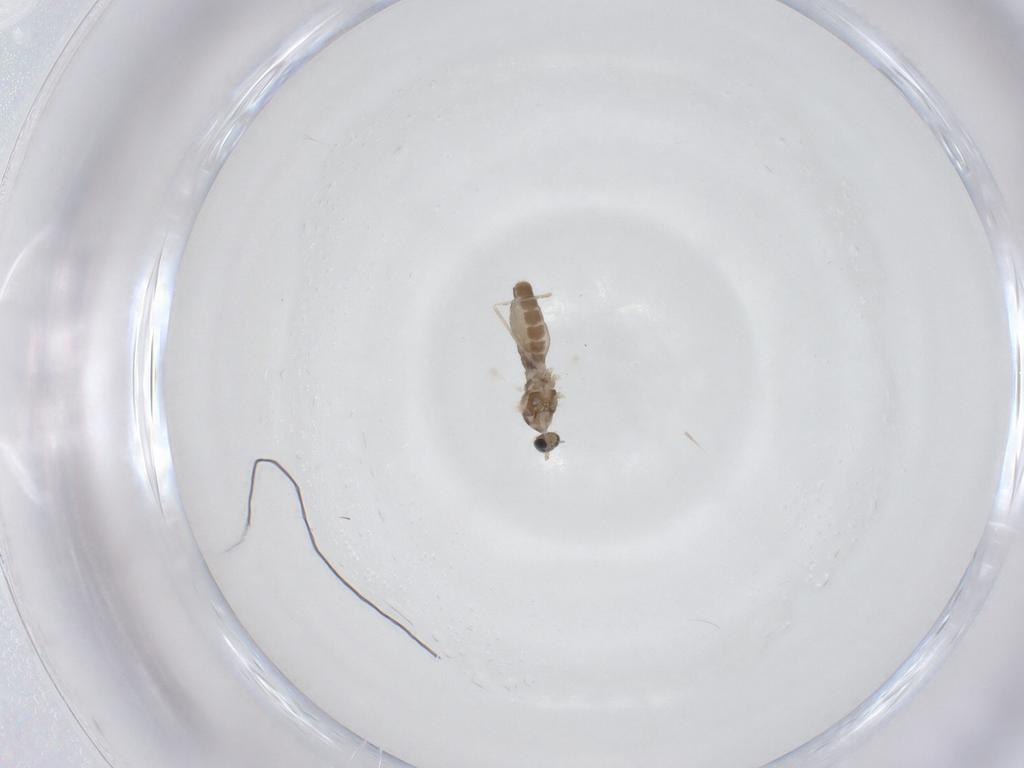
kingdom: Animalia
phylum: Arthropoda
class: Insecta
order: Diptera
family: Cecidomyiidae
